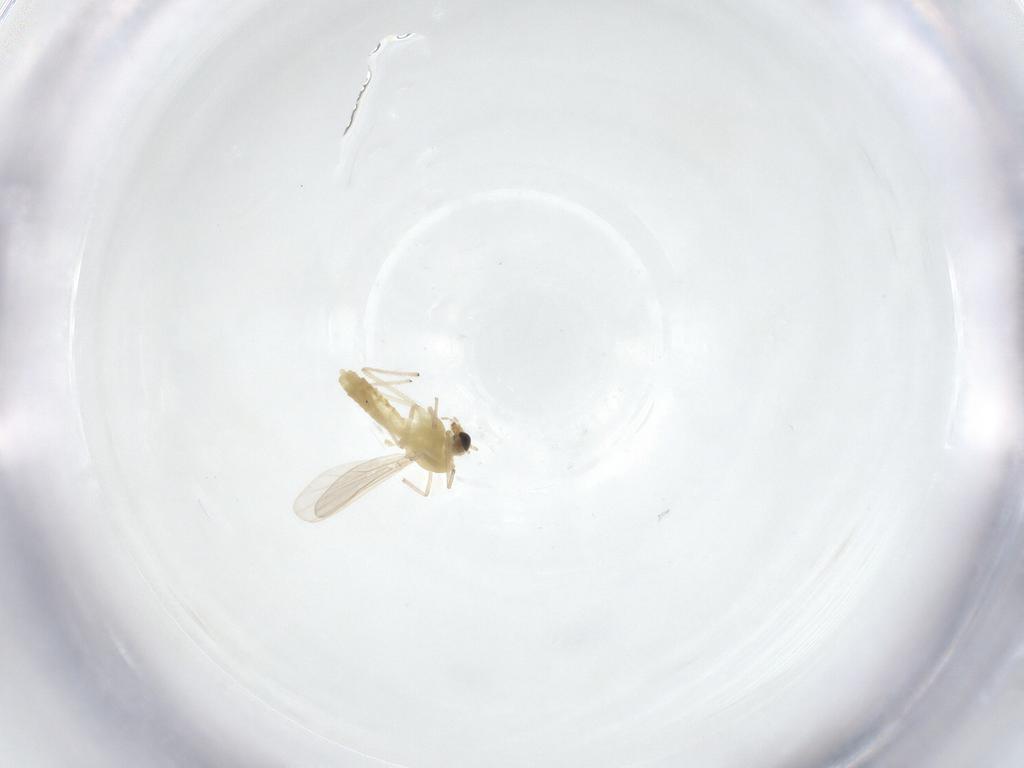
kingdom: Animalia
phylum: Arthropoda
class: Insecta
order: Diptera
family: Chironomidae
